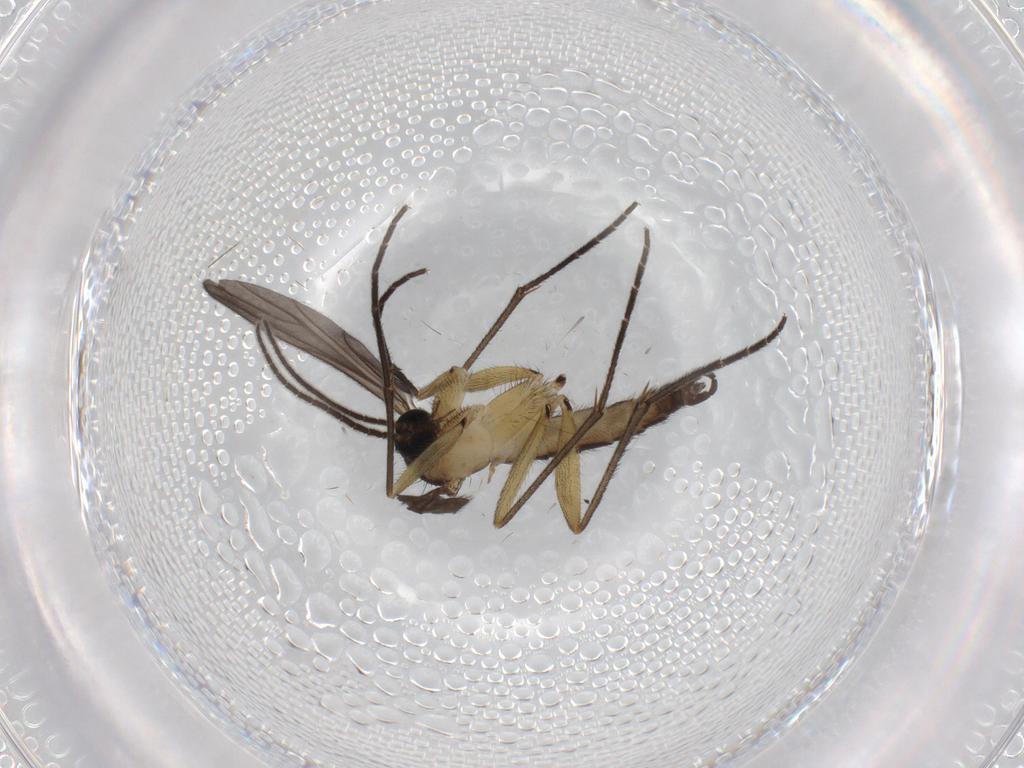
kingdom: Animalia
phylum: Arthropoda
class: Insecta
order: Diptera
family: Sciaridae
